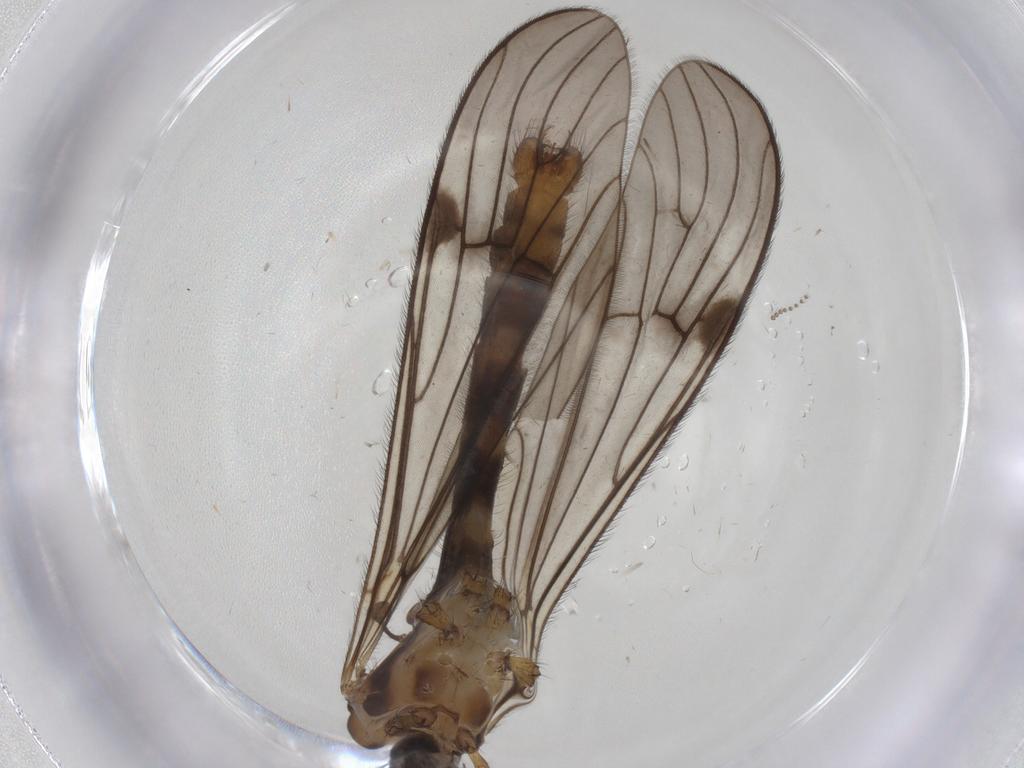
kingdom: Animalia
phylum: Arthropoda
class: Insecta
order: Diptera
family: Limoniidae
